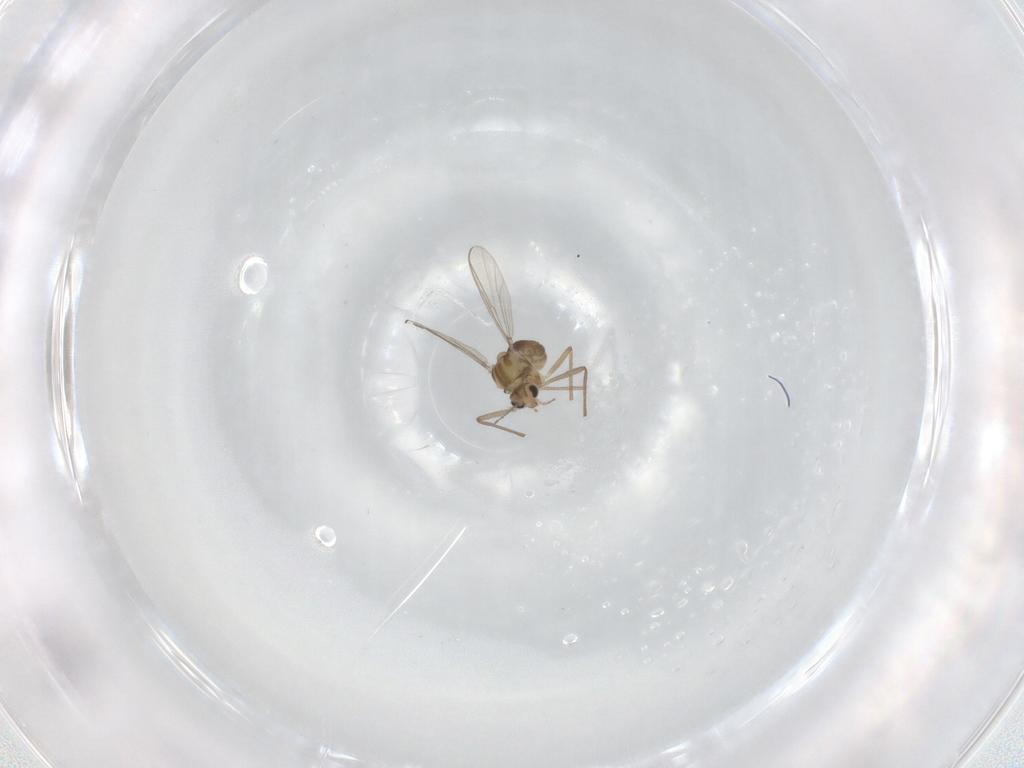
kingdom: Animalia
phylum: Arthropoda
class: Insecta
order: Diptera
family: Chironomidae
